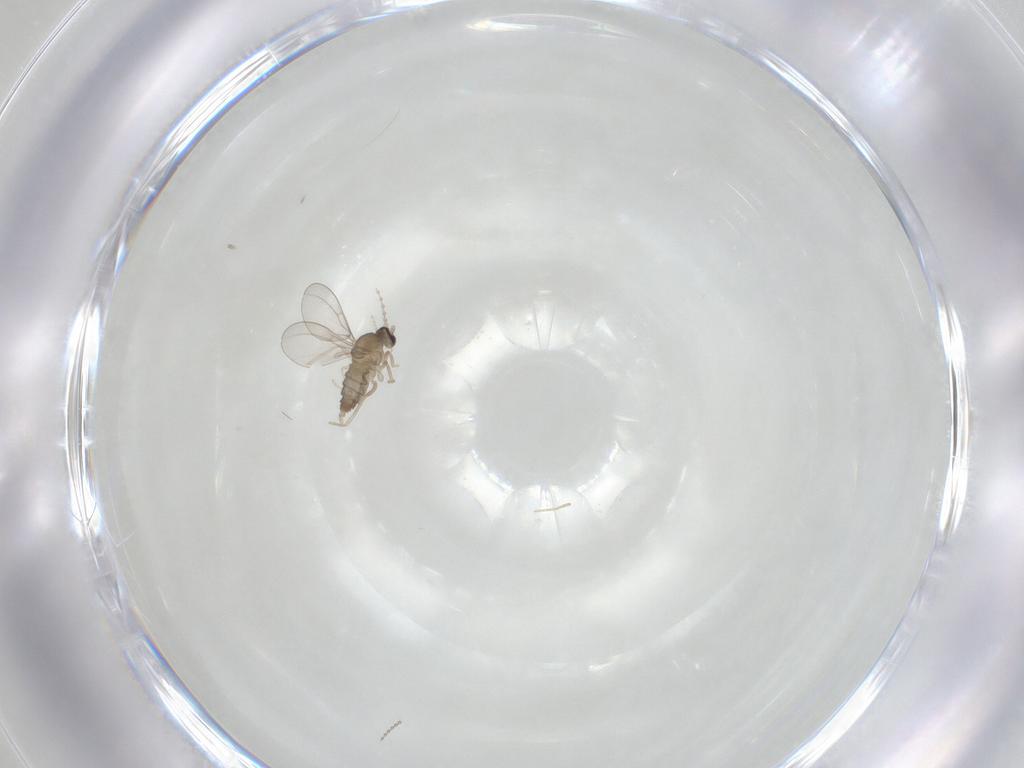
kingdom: Animalia
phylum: Arthropoda
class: Insecta
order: Diptera
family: Cecidomyiidae
